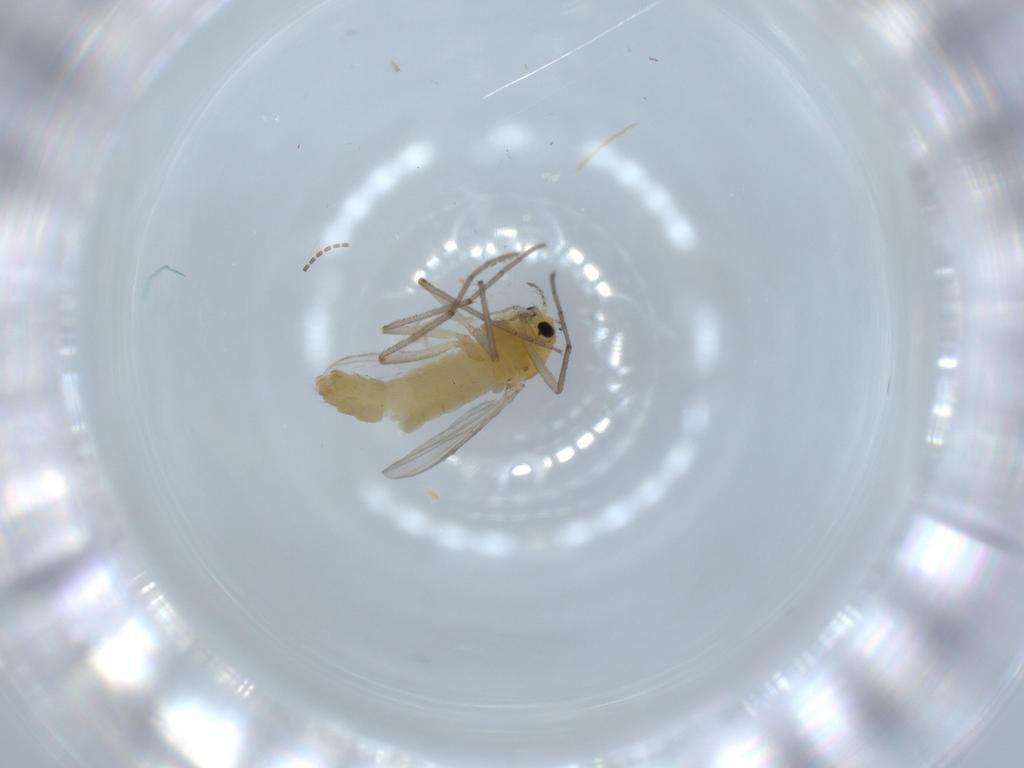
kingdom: Animalia
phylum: Arthropoda
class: Insecta
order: Diptera
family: Chironomidae
